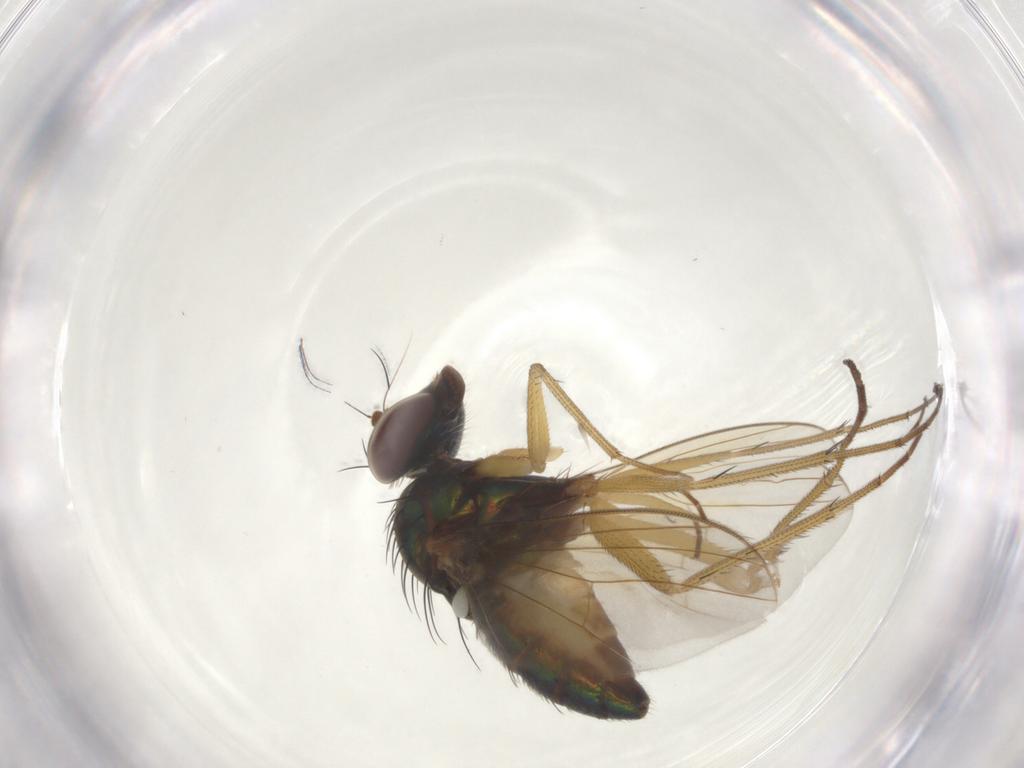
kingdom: Animalia
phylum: Arthropoda
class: Insecta
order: Diptera
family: Dolichopodidae
